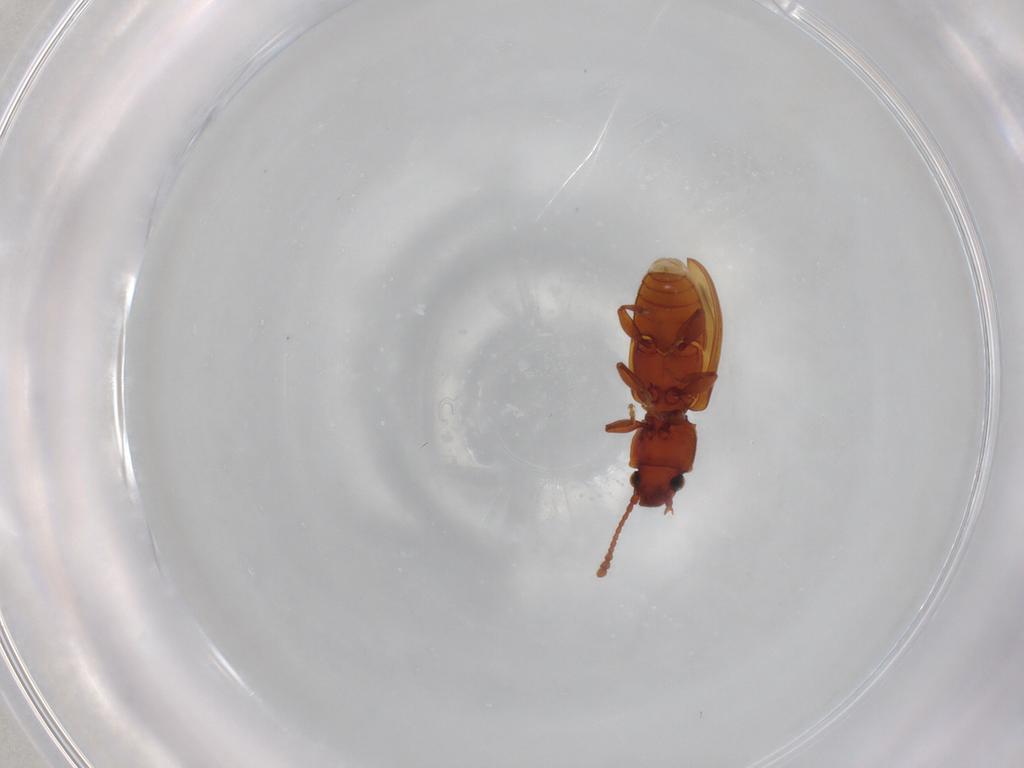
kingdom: Animalia
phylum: Arthropoda
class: Insecta
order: Coleoptera
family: Silvanidae
